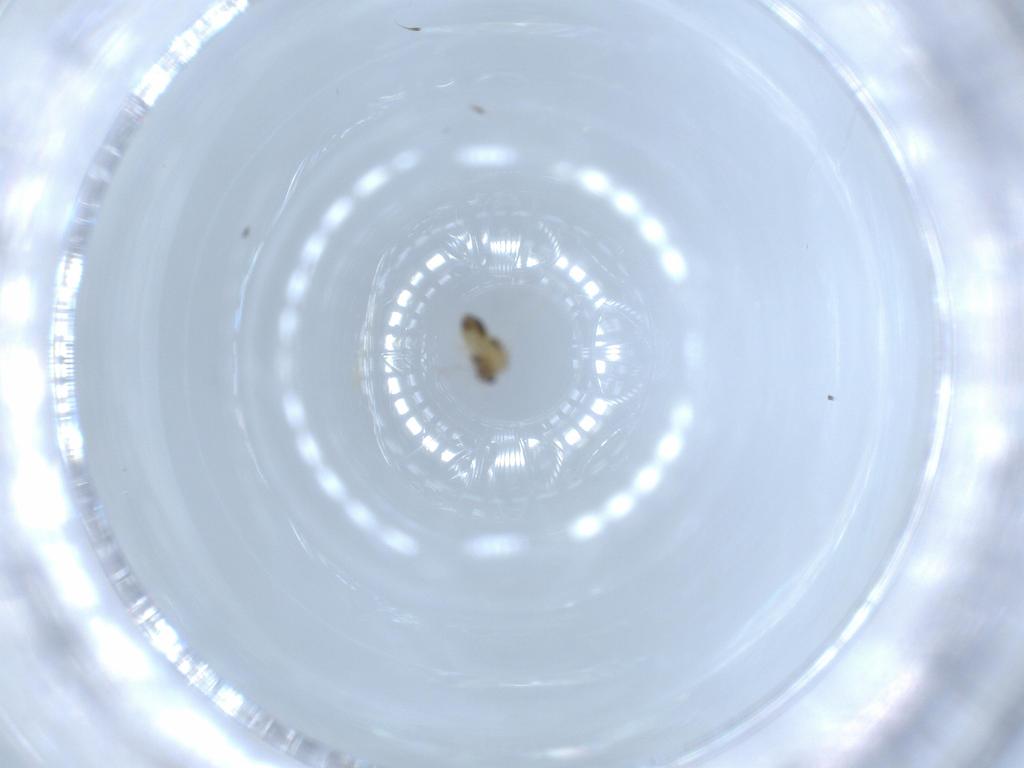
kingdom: Animalia
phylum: Arthropoda
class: Insecta
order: Diptera
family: Chironomidae
